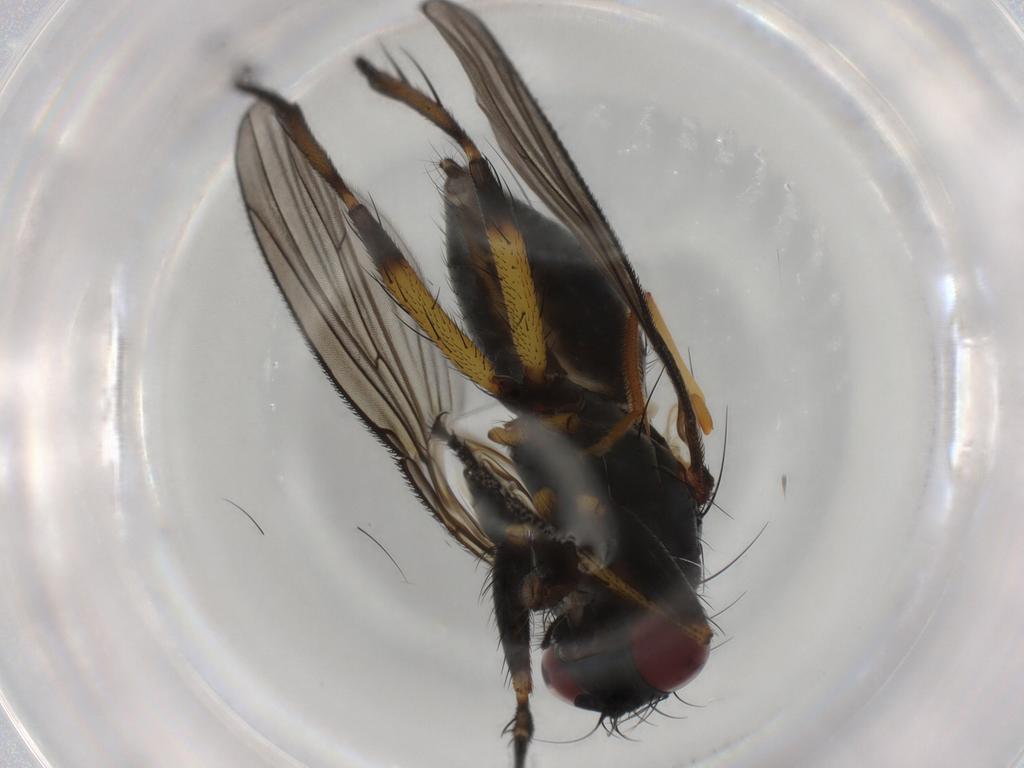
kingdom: Animalia
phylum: Arthropoda
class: Insecta
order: Diptera
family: Muscidae
